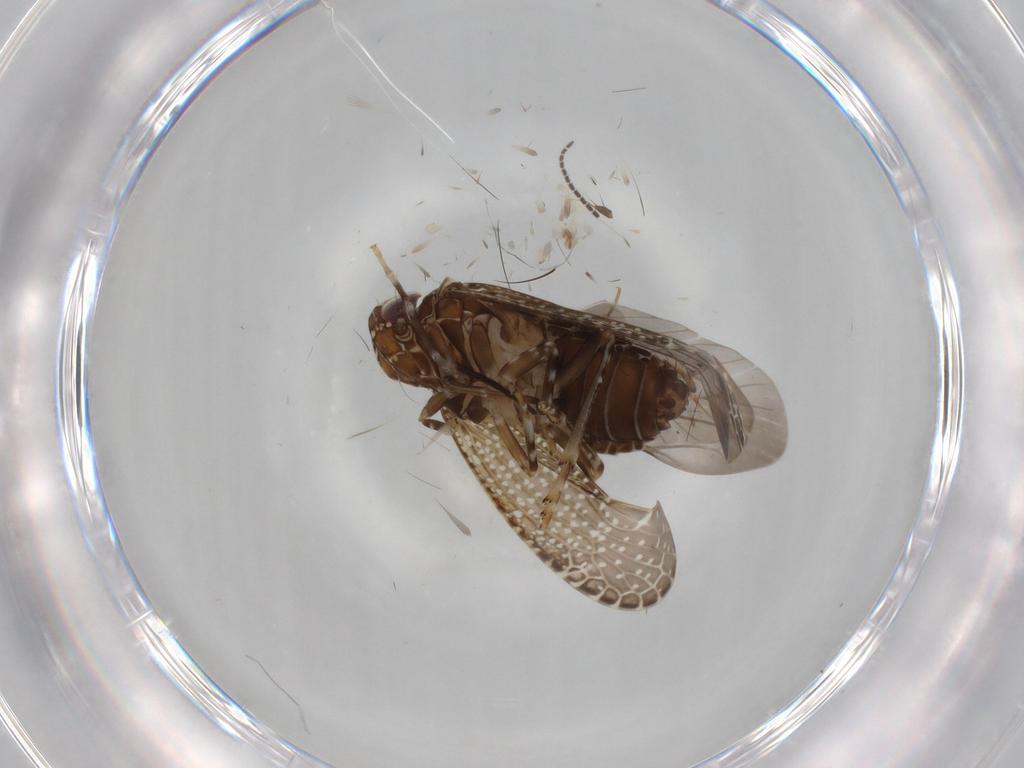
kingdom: Animalia
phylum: Arthropoda
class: Insecta
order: Hemiptera
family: Achilidae
